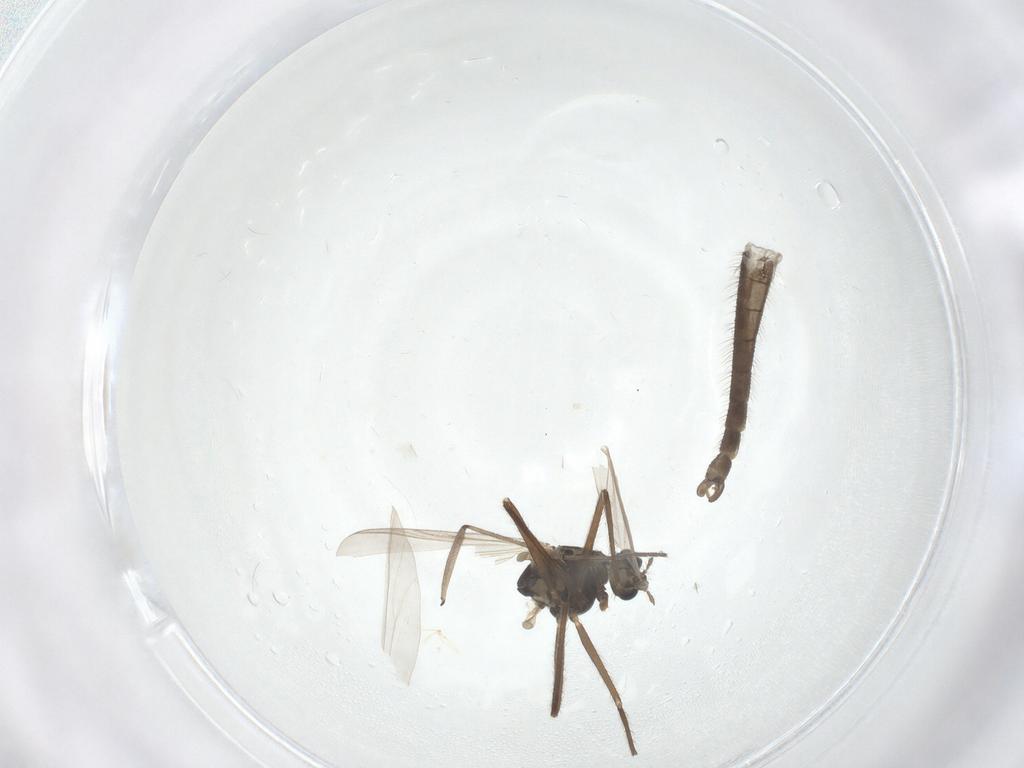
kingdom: Animalia
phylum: Arthropoda
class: Insecta
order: Diptera
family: Chironomidae
